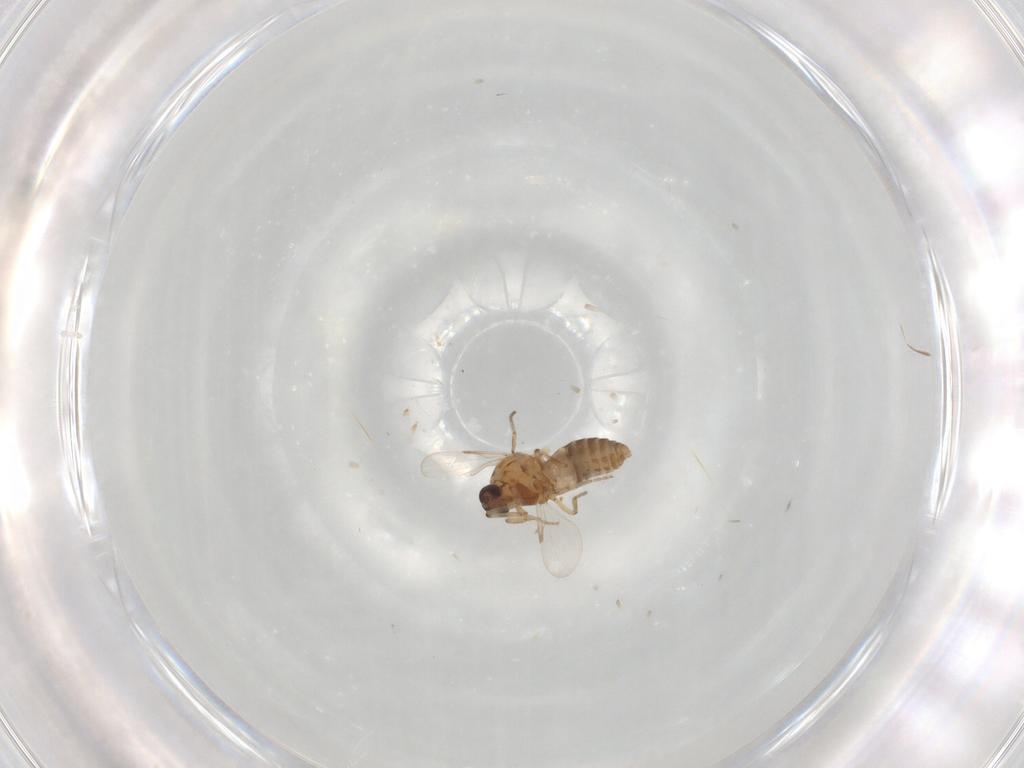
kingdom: Animalia
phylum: Arthropoda
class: Insecta
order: Diptera
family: Phoridae
